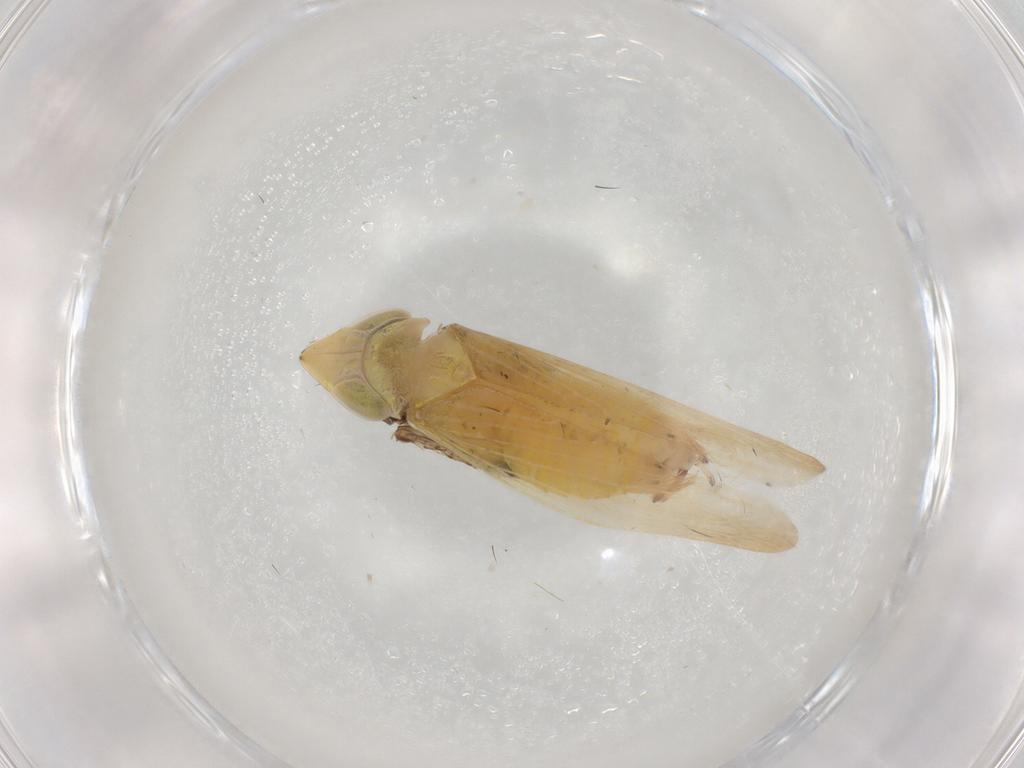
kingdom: Animalia
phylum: Arthropoda
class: Insecta
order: Hemiptera
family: Cicadellidae
